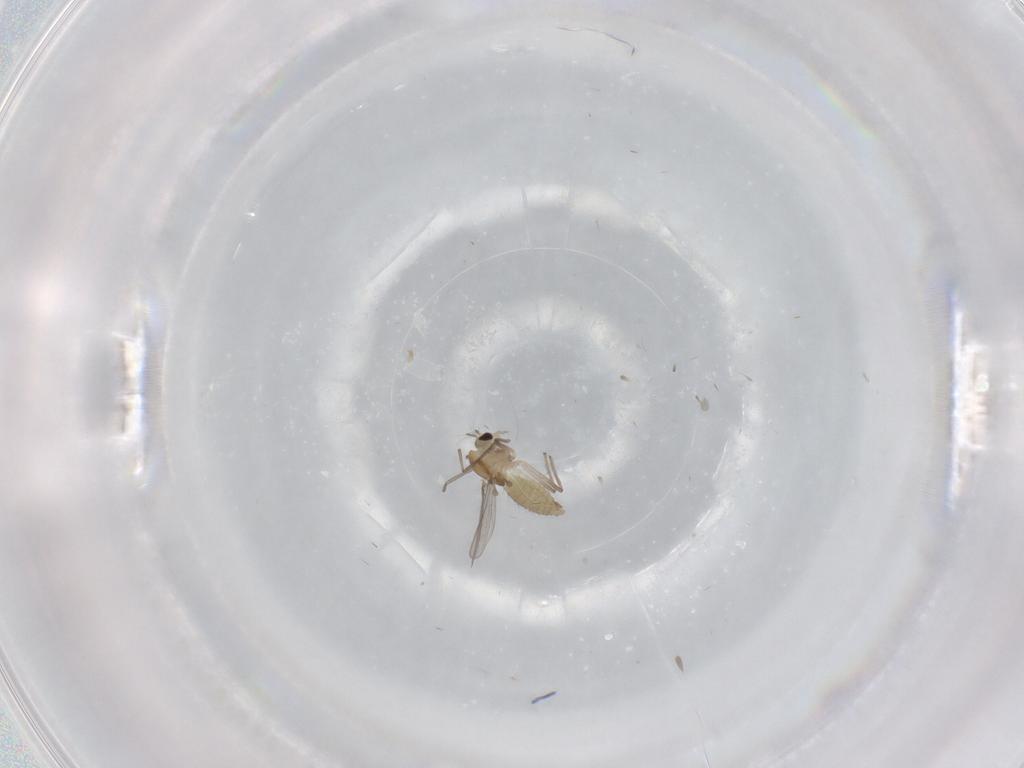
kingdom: Animalia
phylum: Arthropoda
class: Insecta
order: Diptera
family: Chironomidae
